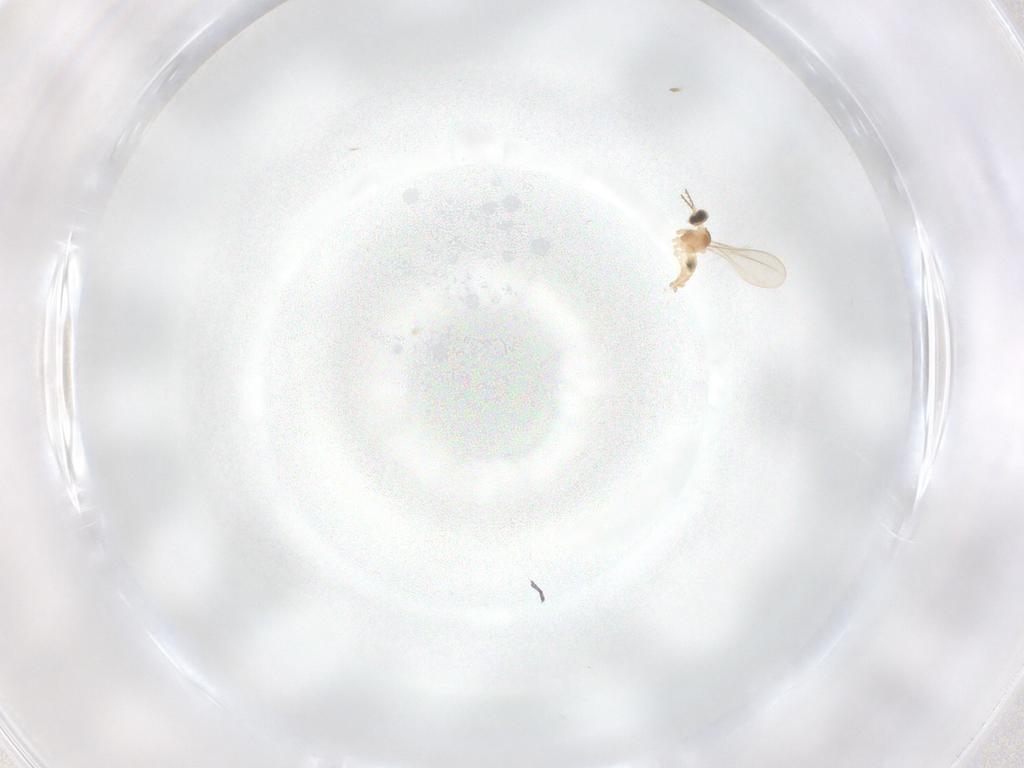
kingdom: Animalia
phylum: Arthropoda
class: Insecta
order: Diptera
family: Cecidomyiidae
